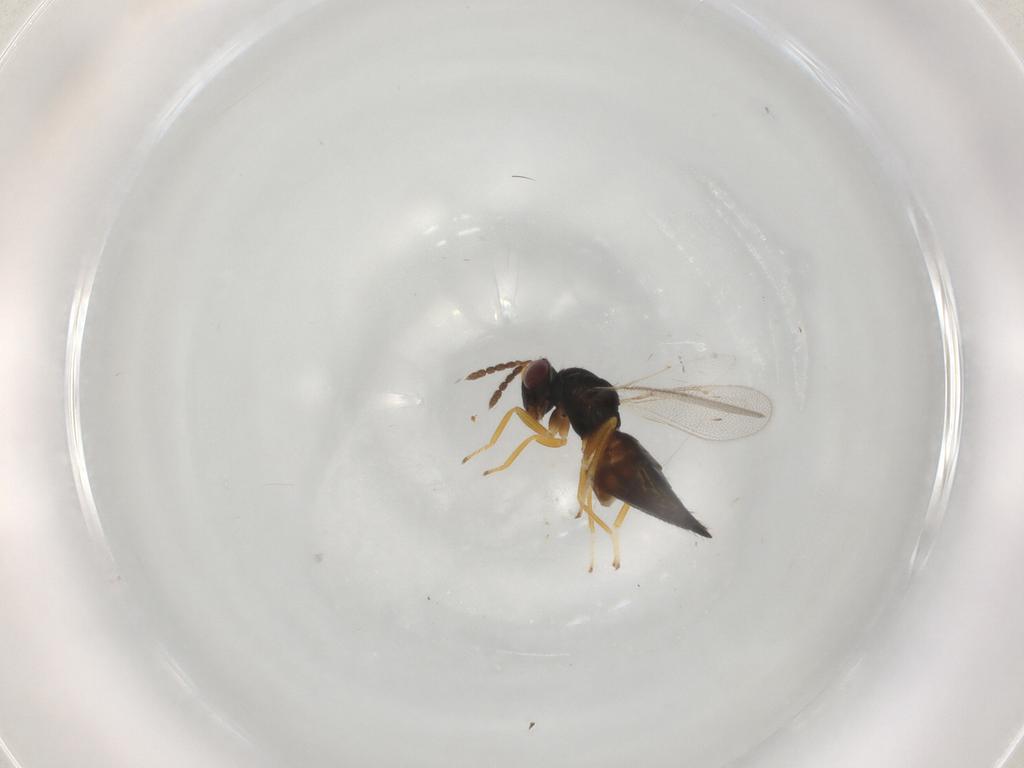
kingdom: Animalia
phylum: Arthropoda
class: Insecta
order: Hymenoptera
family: Eulophidae
